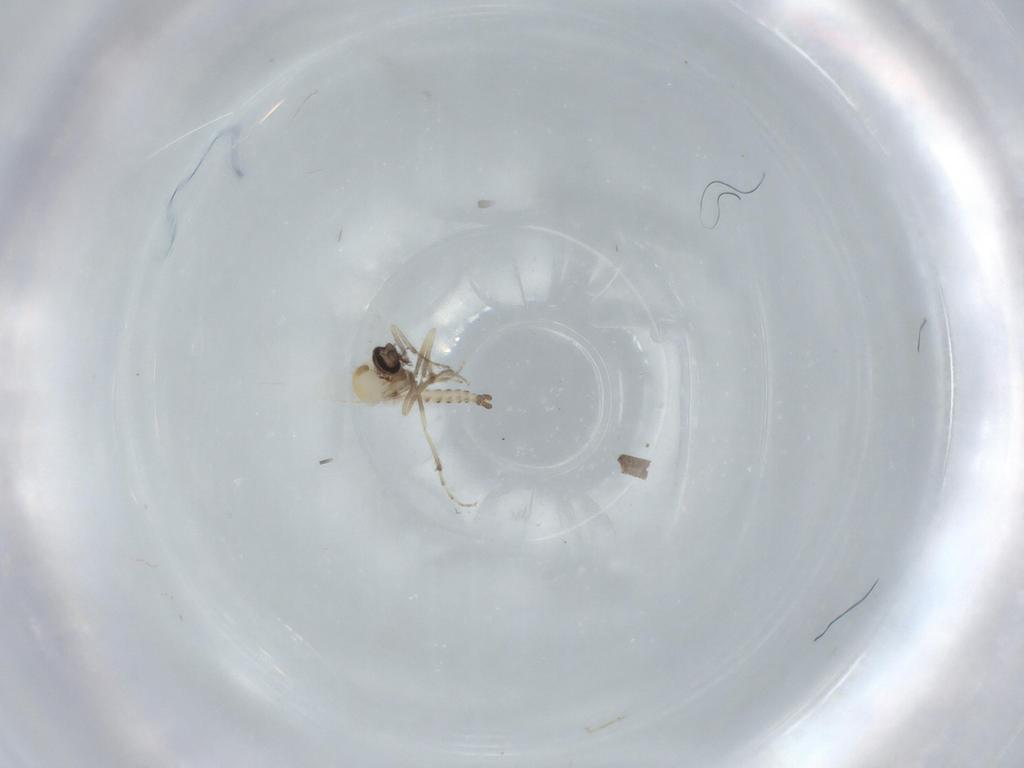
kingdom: Animalia
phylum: Arthropoda
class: Insecta
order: Diptera
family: Ceratopogonidae
